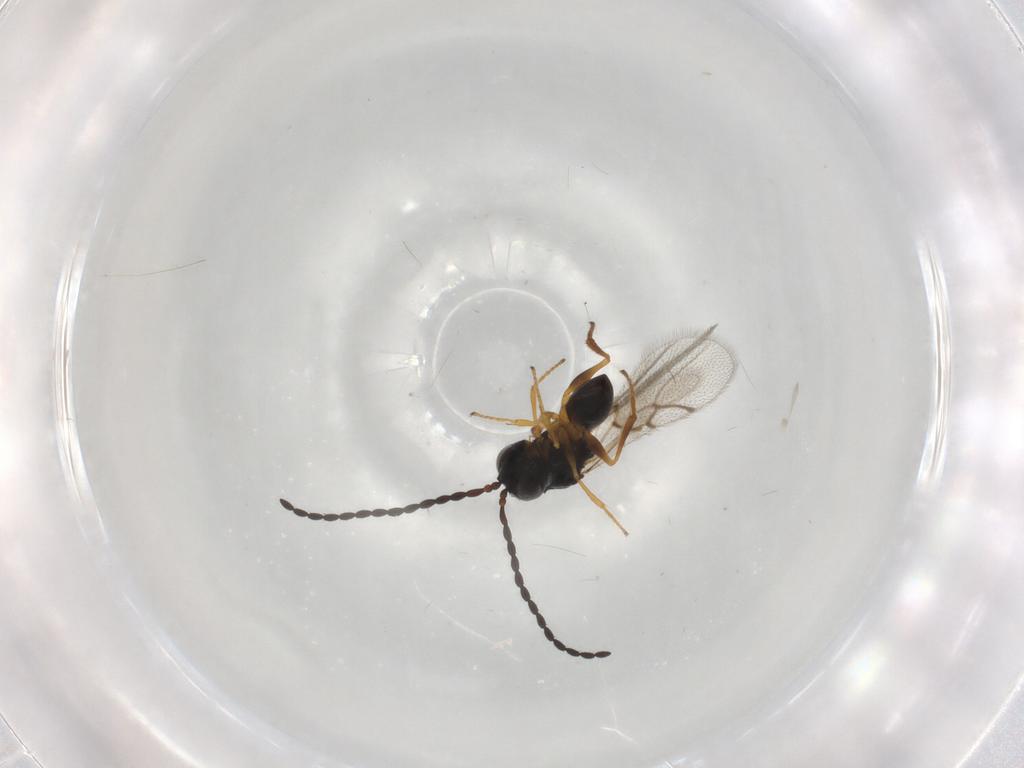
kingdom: Animalia
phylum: Arthropoda
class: Insecta
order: Hymenoptera
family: Figitidae
